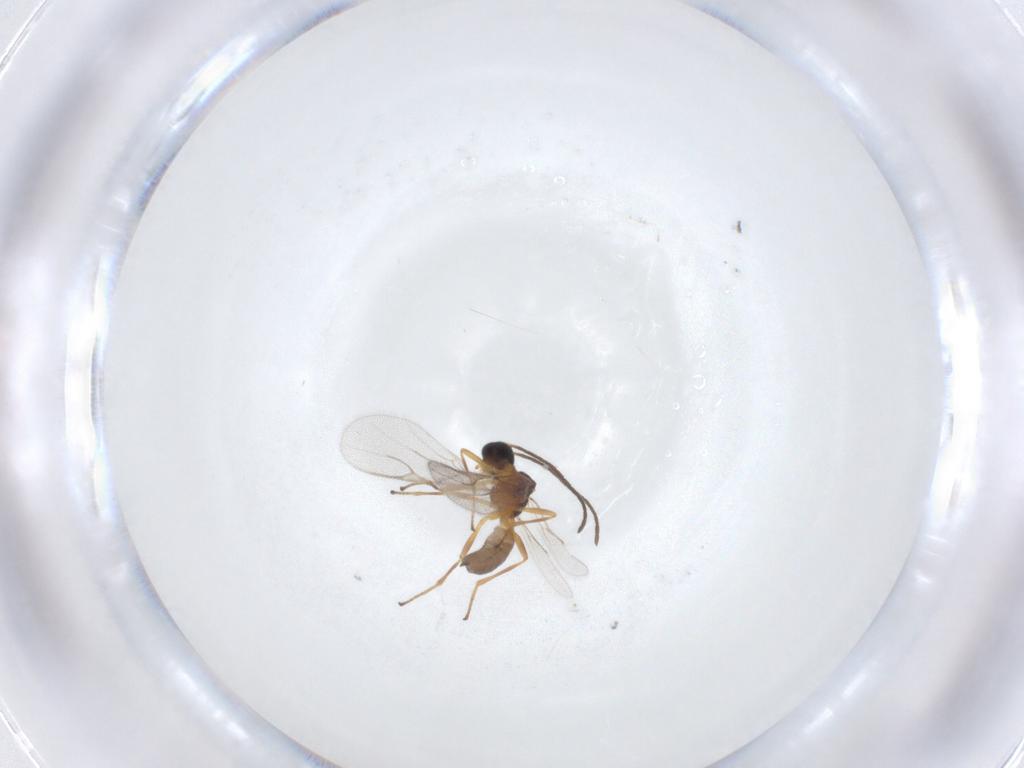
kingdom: Animalia
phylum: Arthropoda
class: Insecta
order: Hymenoptera
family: Braconidae
